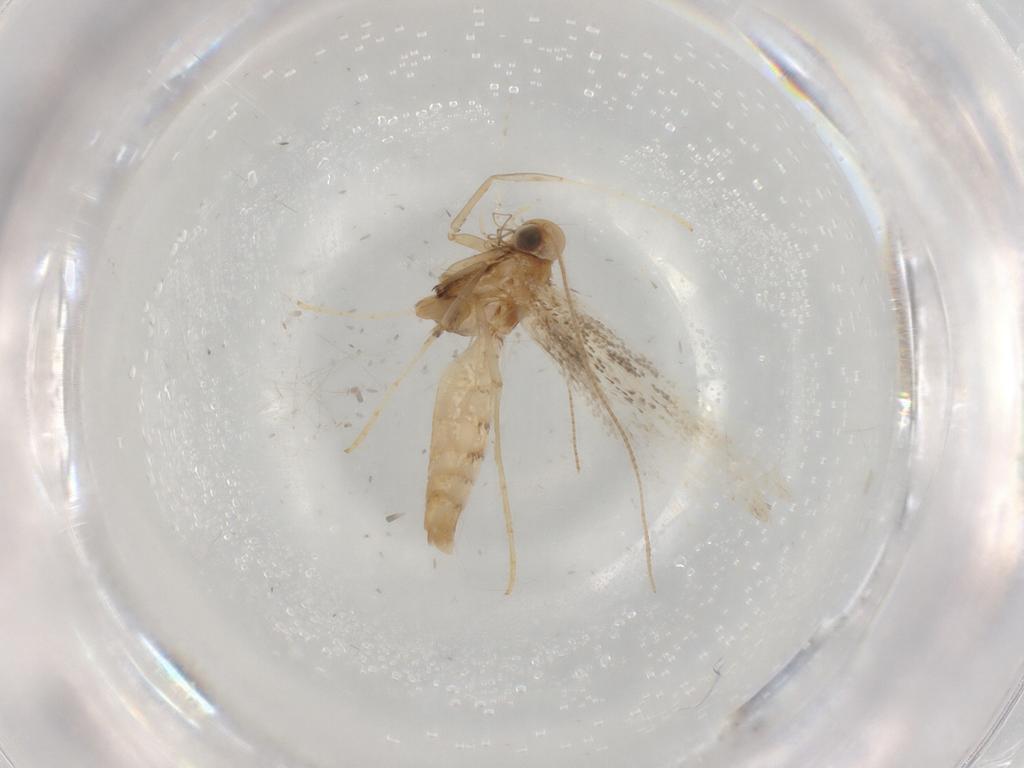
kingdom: Animalia
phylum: Arthropoda
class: Insecta
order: Lepidoptera
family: Gracillariidae
